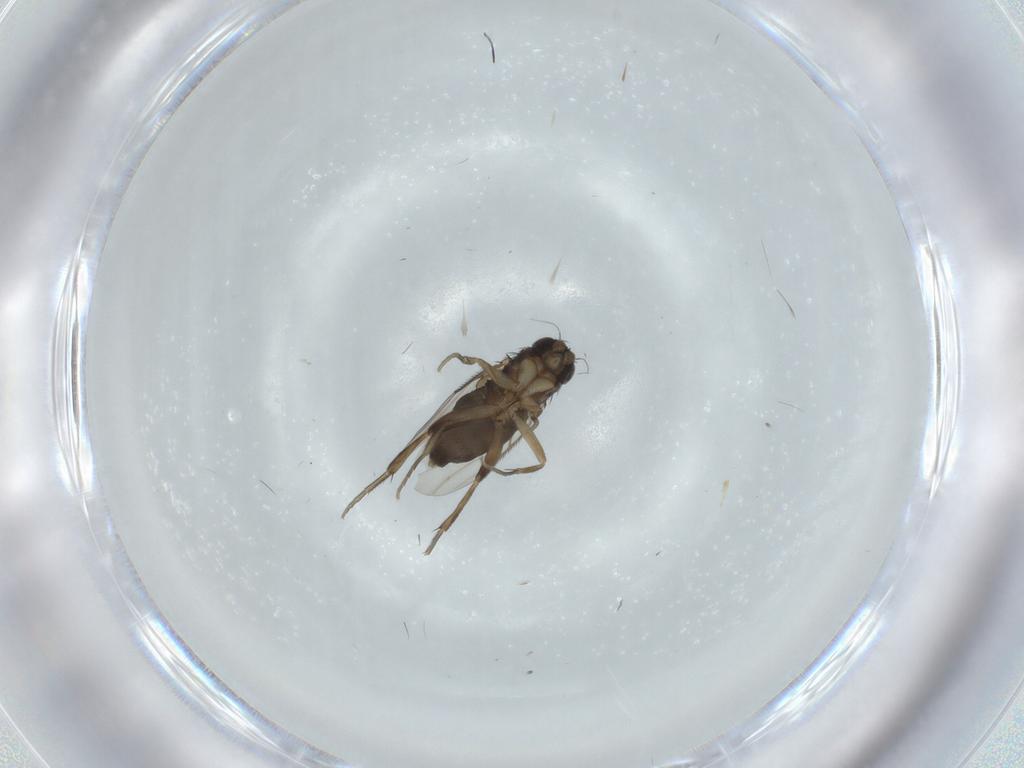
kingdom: Animalia
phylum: Arthropoda
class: Insecta
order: Diptera
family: Phoridae
